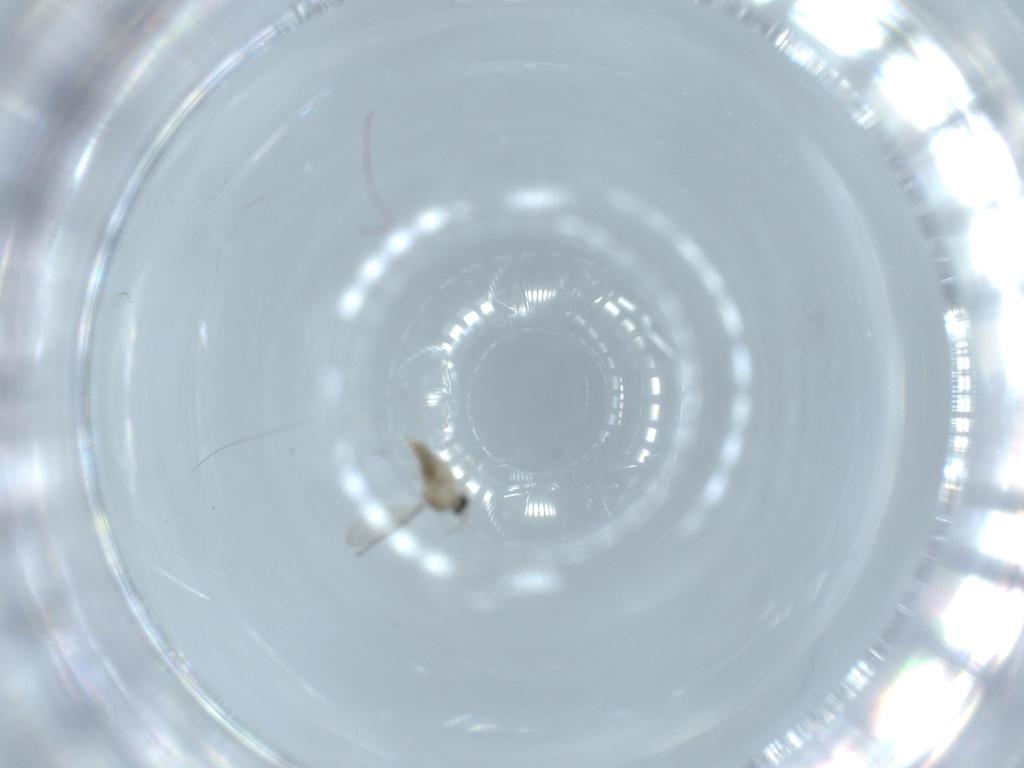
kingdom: Animalia
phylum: Arthropoda
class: Insecta
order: Diptera
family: Cecidomyiidae
